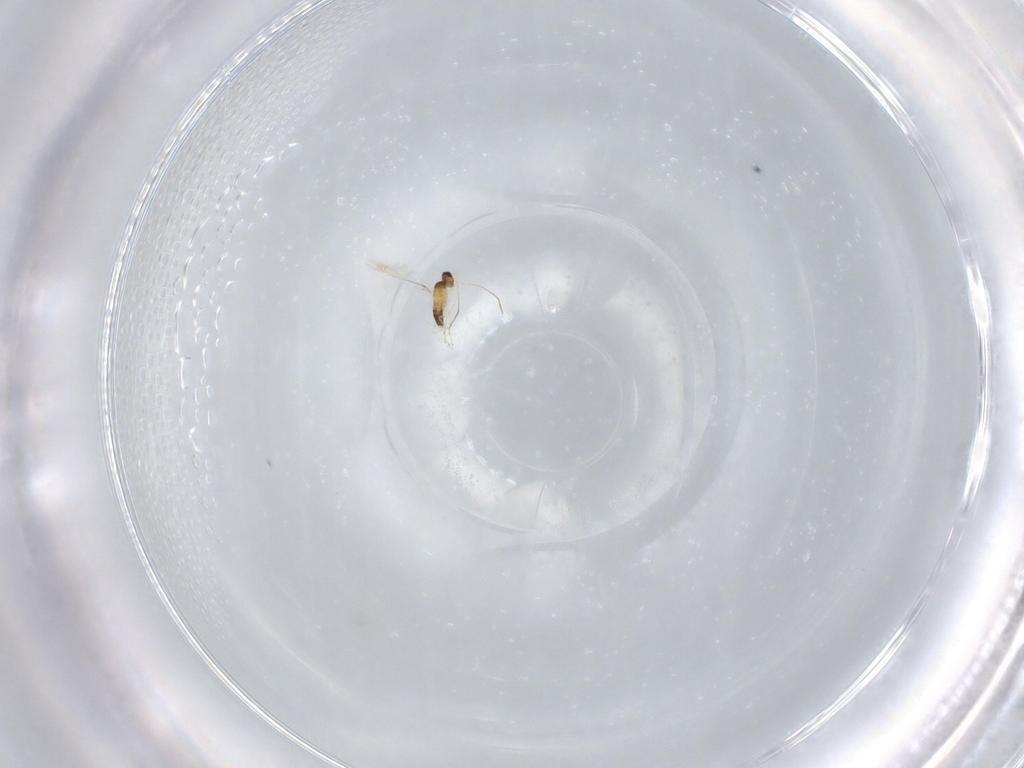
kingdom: Animalia
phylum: Arthropoda
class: Insecta
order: Hymenoptera
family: Mymaridae
